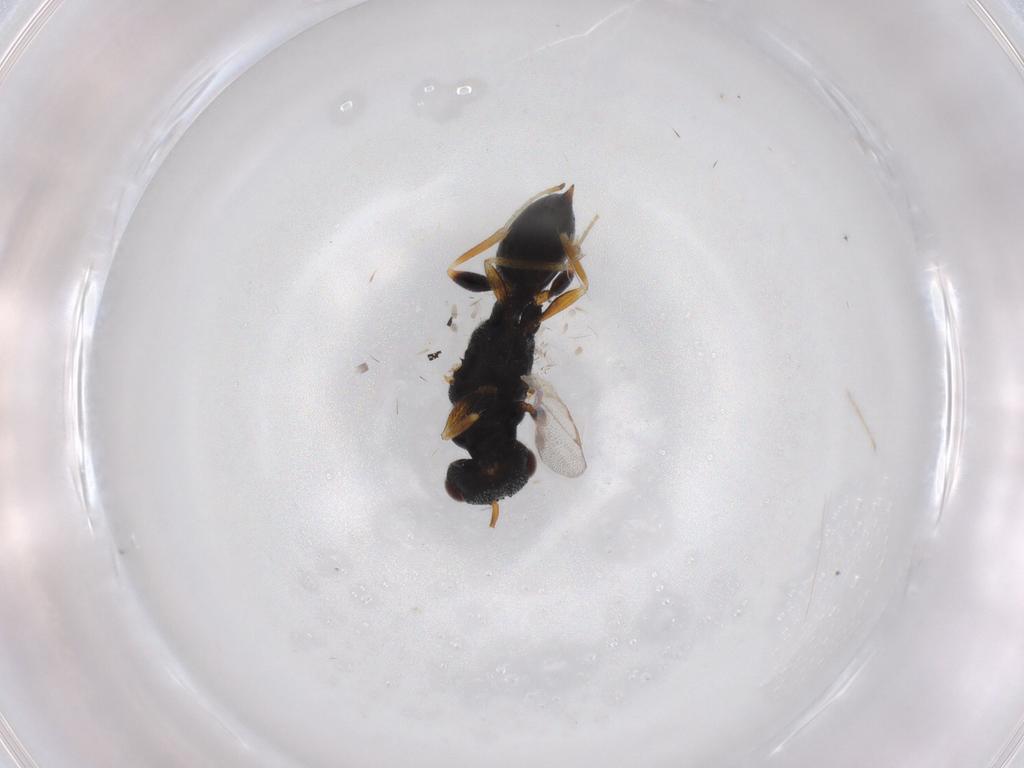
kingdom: Animalia
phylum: Arthropoda
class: Insecta
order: Hymenoptera
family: Eurytomidae
